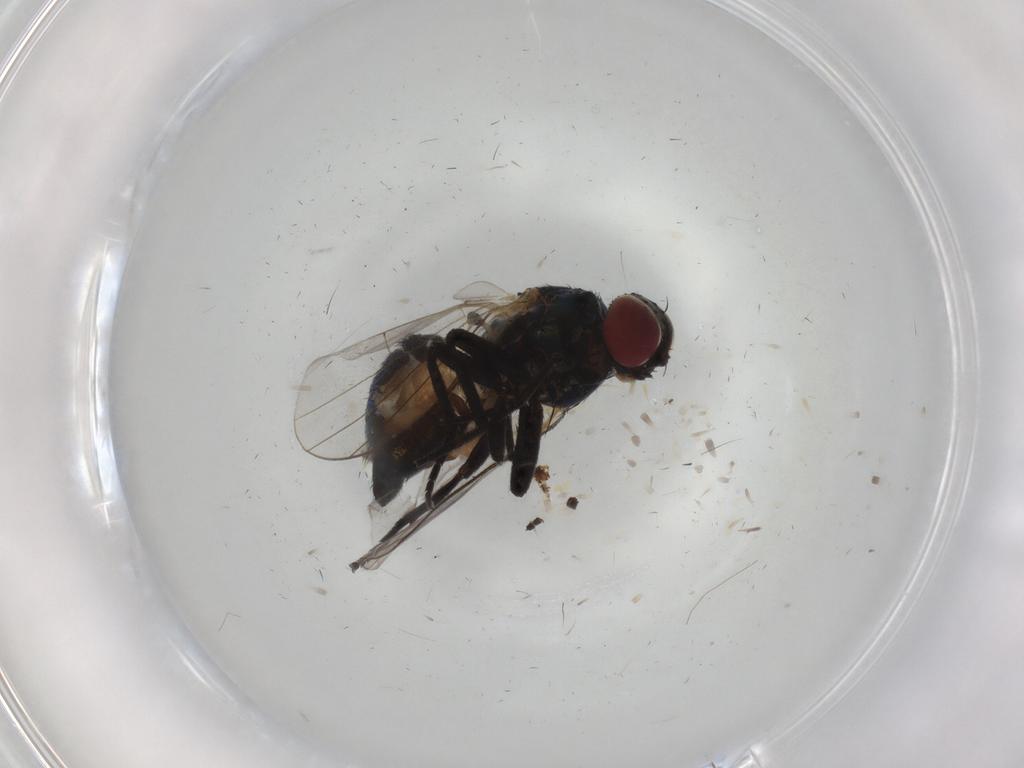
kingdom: Animalia
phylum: Arthropoda
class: Insecta
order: Diptera
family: Agromyzidae
